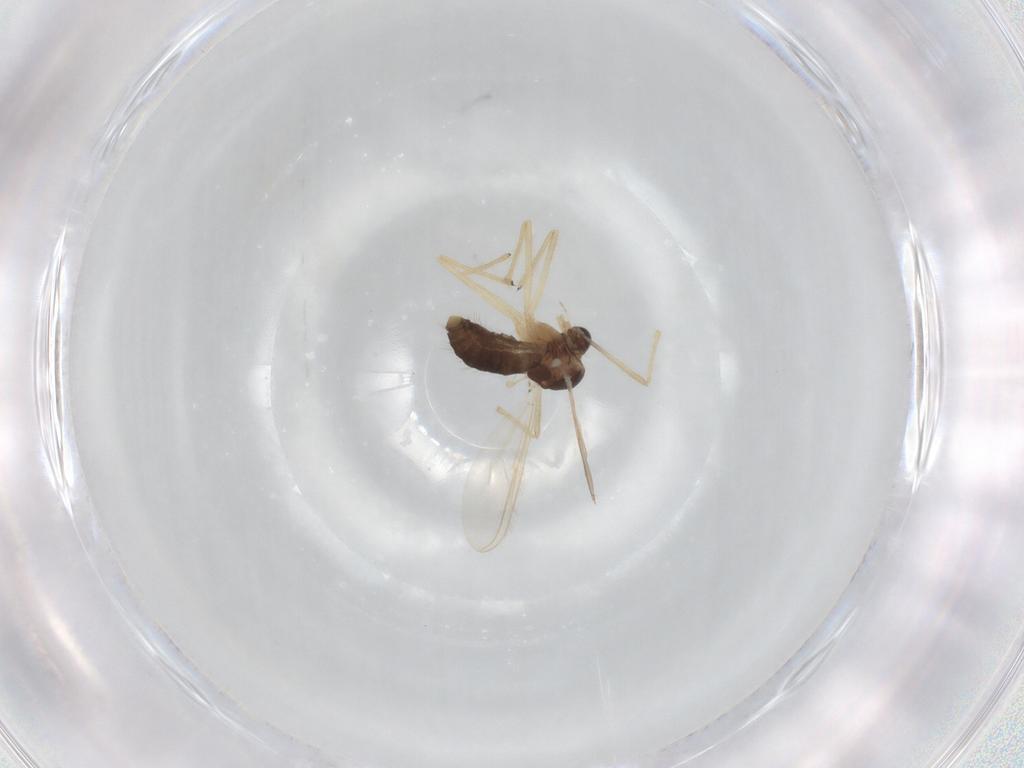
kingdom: Animalia
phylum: Arthropoda
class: Insecta
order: Diptera
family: Chironomidae
